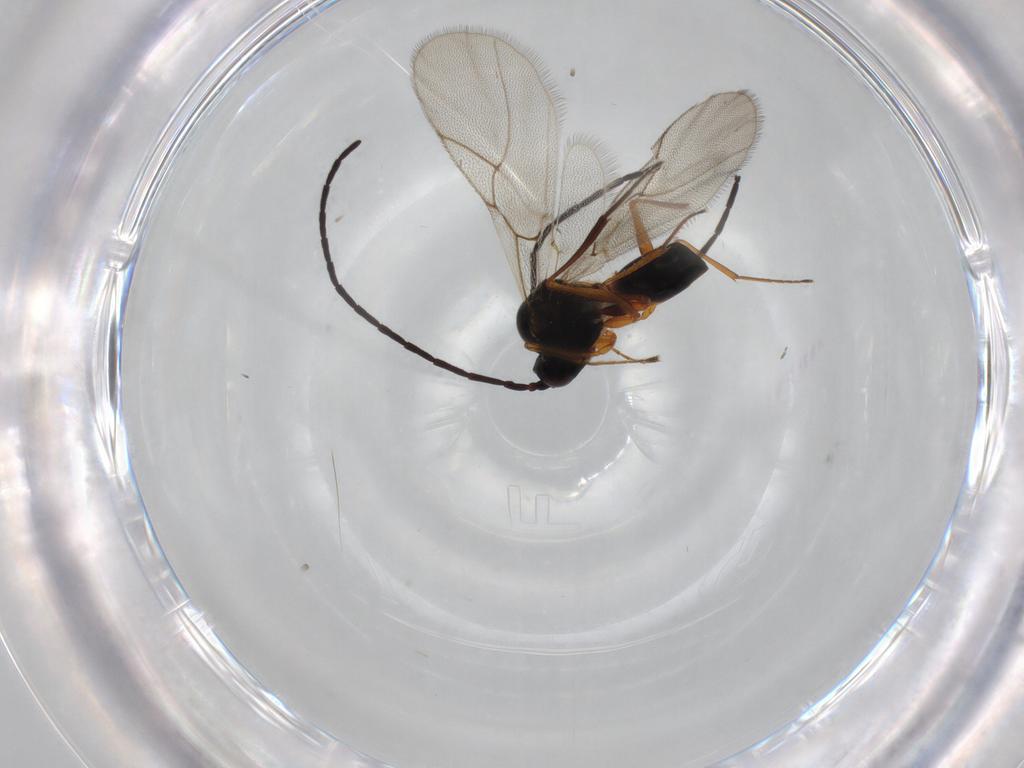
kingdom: Animalia
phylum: Arthropoda
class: Insecta
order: Hymenoptera
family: Figitidae
